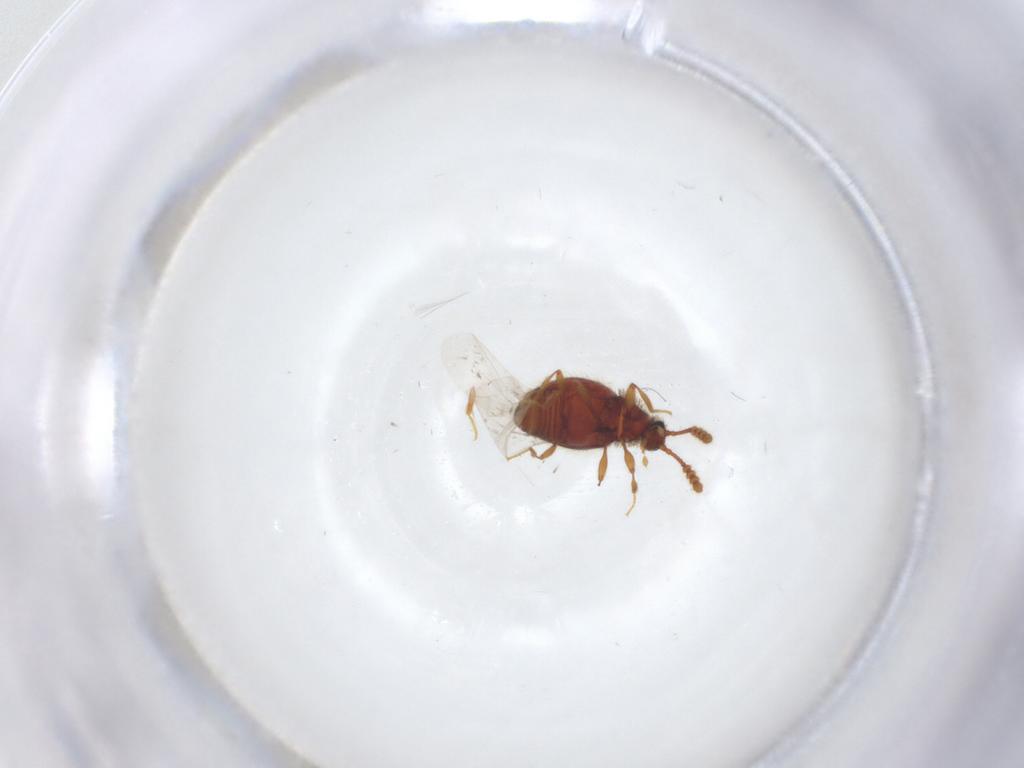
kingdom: Animalia
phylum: Arthropoda
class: Insecta
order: Coleoptera
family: Staphylinidae
